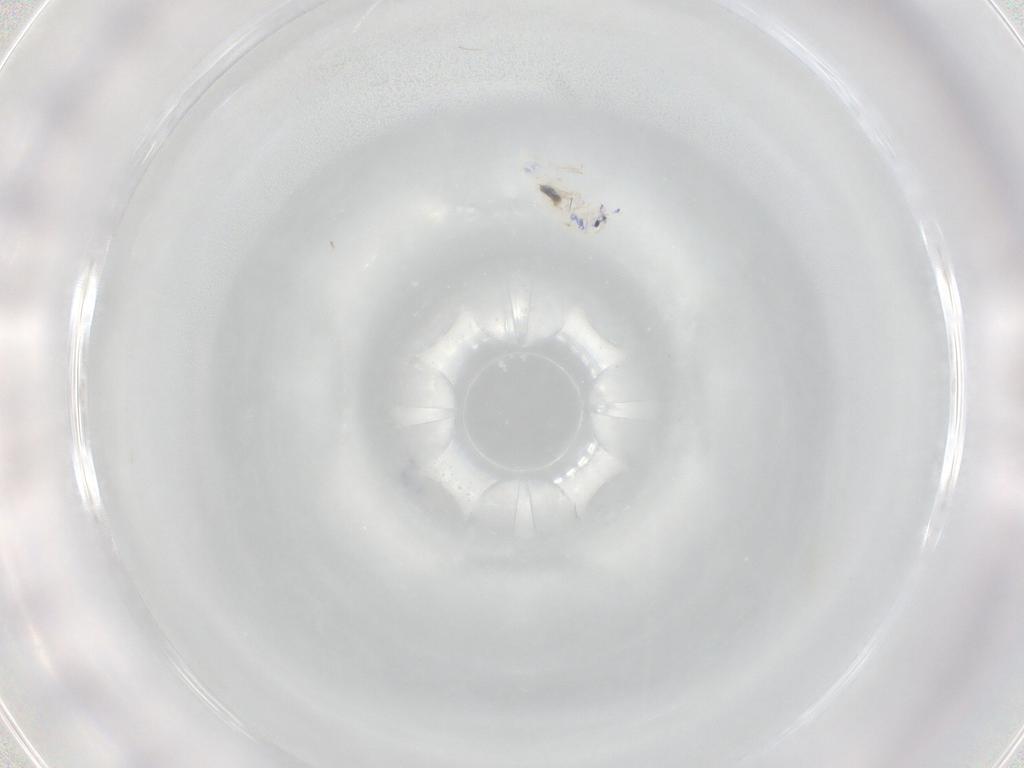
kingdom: Animalia
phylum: Arthropoda
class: Collembola
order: Entomobryomorpha
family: Entomobryidae
